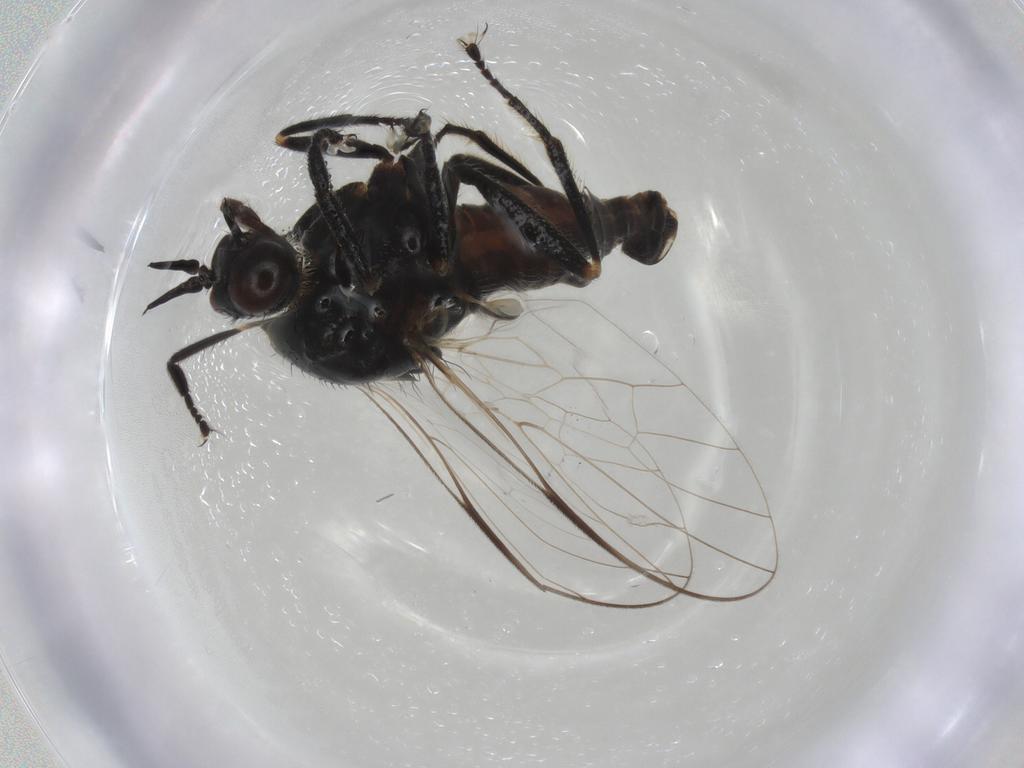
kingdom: Animalia
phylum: Arthropoda
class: Insecta
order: Diptera
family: Empididae
